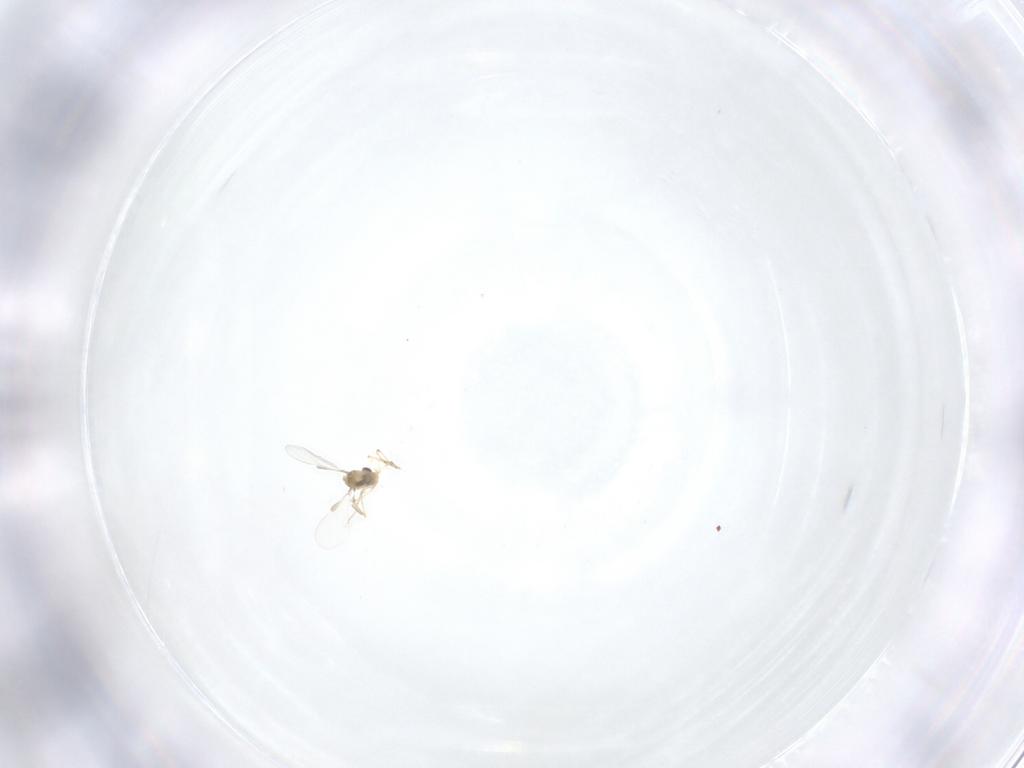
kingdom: Animalia
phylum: Arthropoda
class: Insecta
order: Diptera
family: Chironomidae
